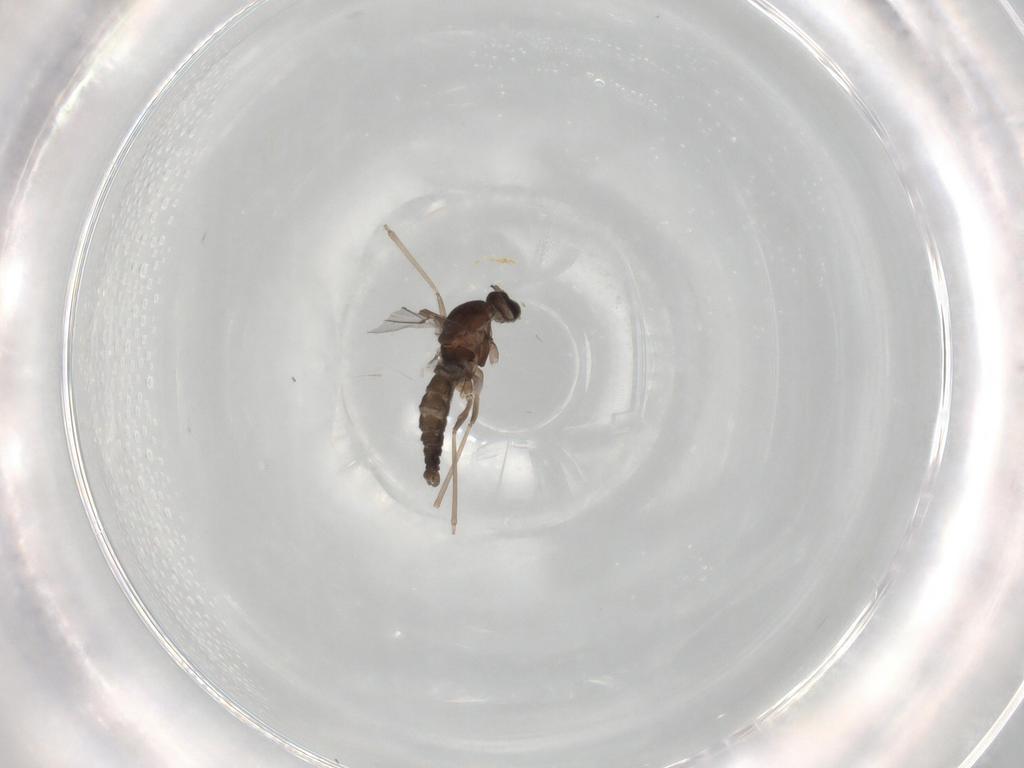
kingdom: Animalia
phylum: Arthropoda
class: Insecta
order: Diptera
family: Cecidomyiidae
